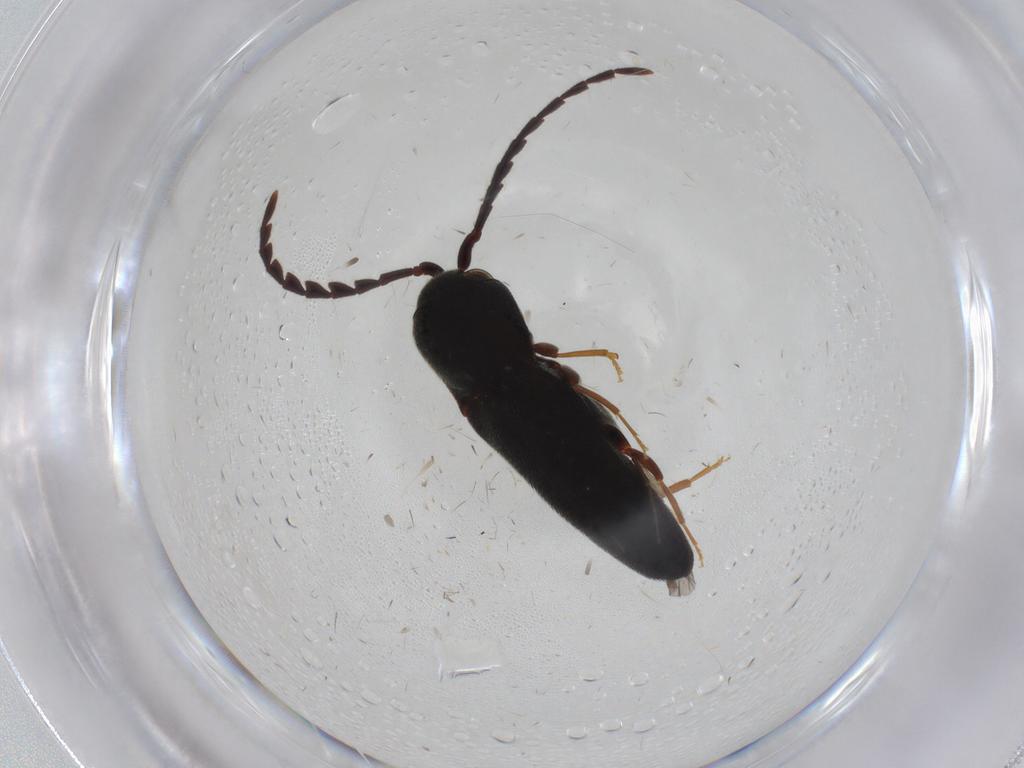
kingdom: Animalia
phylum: Arthropoda
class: Insecta
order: Coleoptera
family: Eucnemidae
